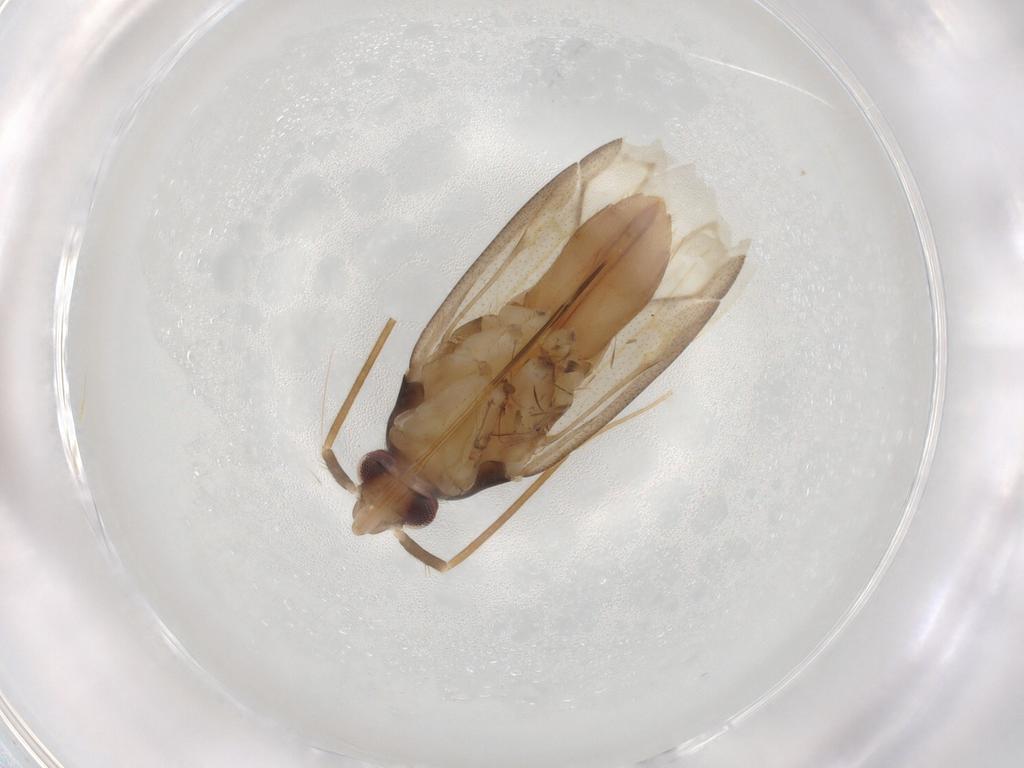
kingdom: Animalia
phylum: Arthropoda
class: Insecta
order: Hemiptera
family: Miridae
